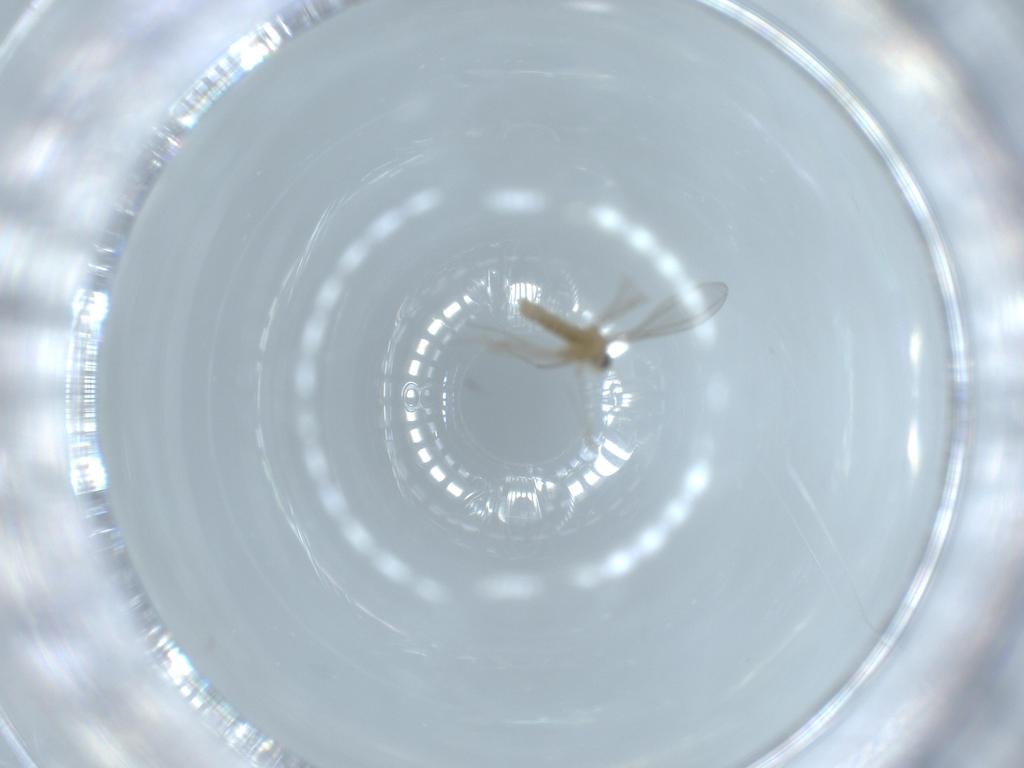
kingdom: Animalia
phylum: Arthropoda
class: Insecta
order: Diptera
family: Cecidomyiidae
